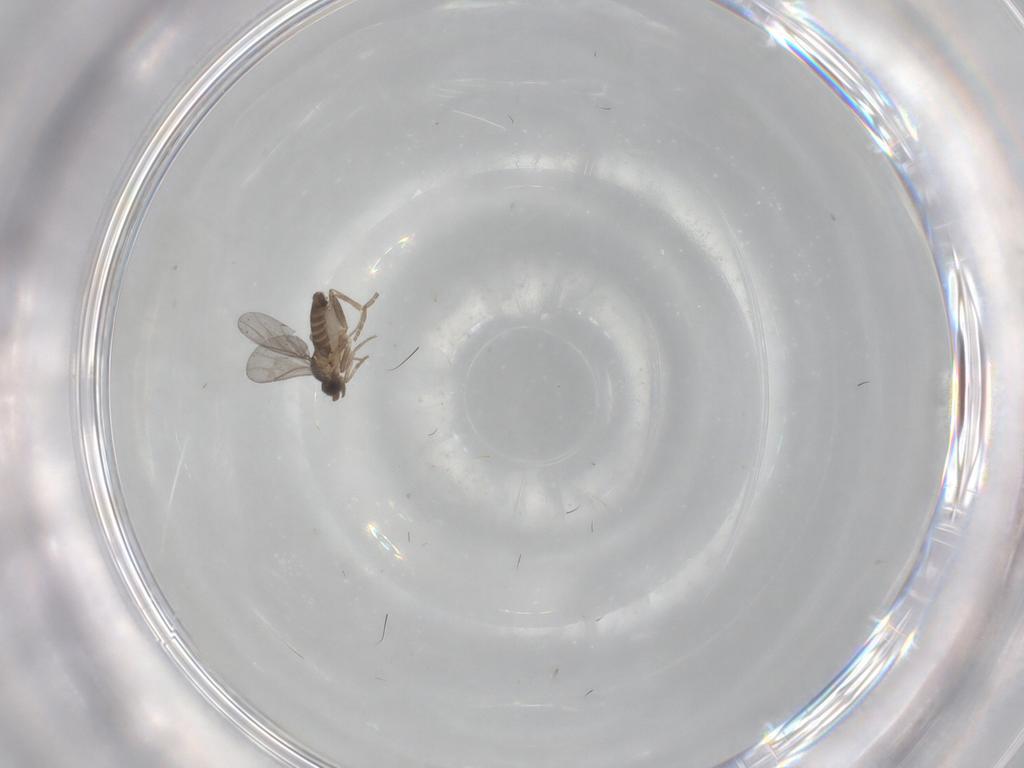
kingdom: Animalia
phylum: Arthropoda
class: Insecta
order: Diptera
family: Chironomidae
